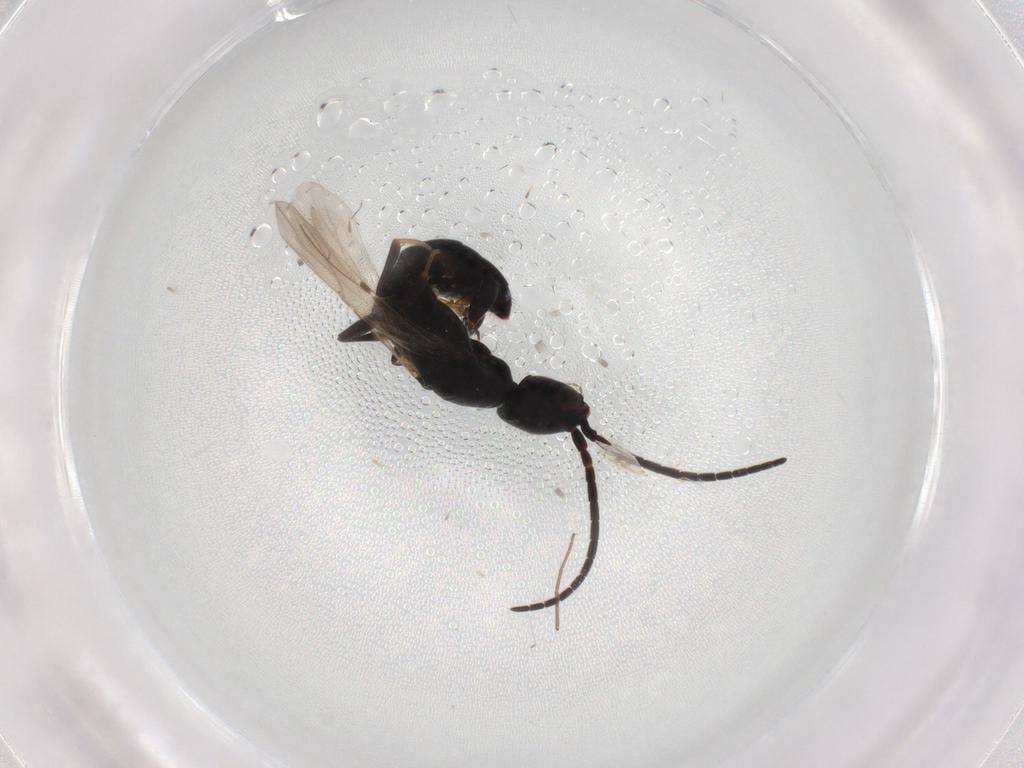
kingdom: Animalia
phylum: Arthropoda
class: Insecta
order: Hymenoptera
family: Bethylidae
